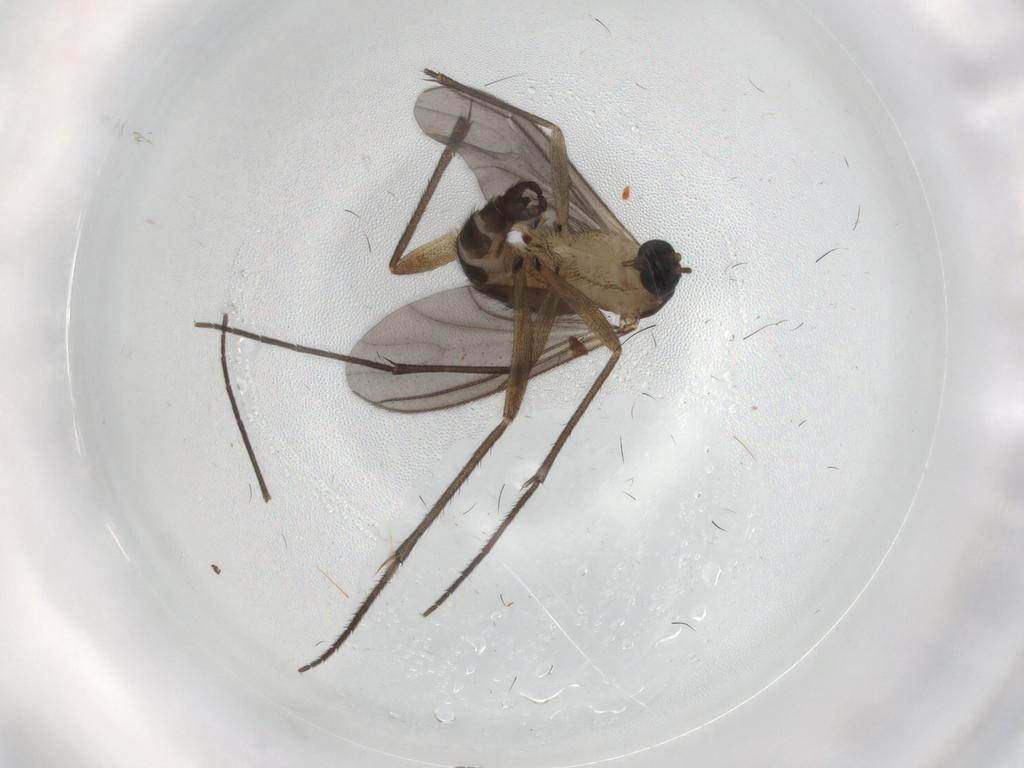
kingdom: Animalia
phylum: Arthropoda
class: Insecta
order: Diptera
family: Sciaridae
